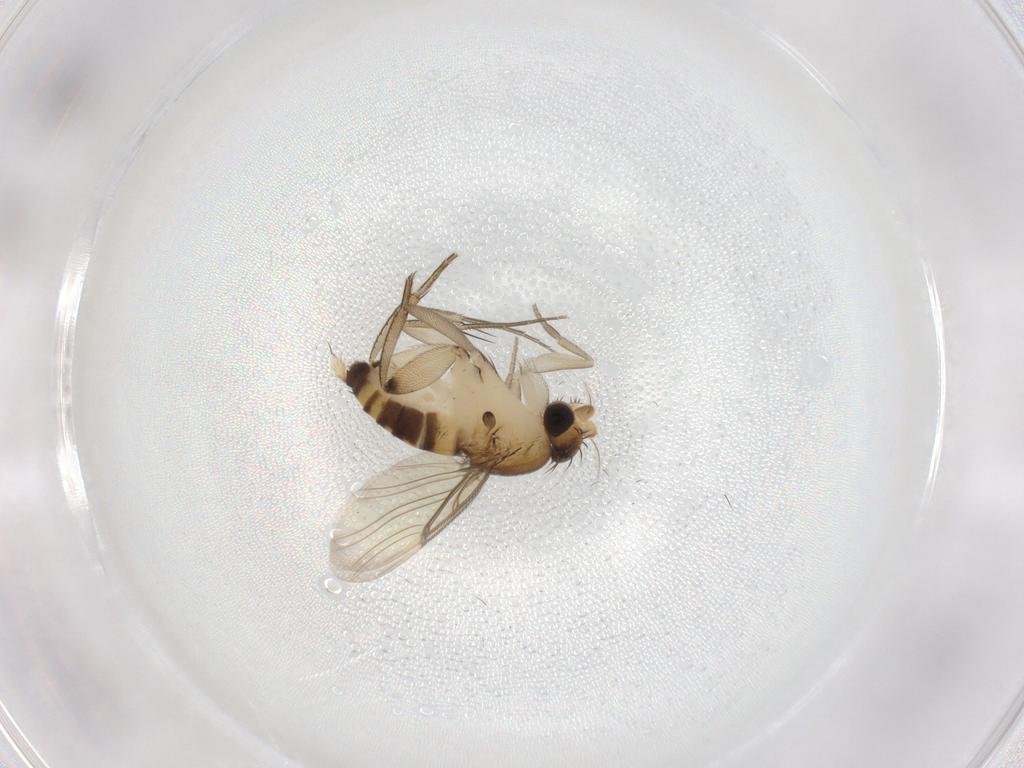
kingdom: Animalia
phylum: Arthropoda
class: Insecta
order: Diptera
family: Phoridae
